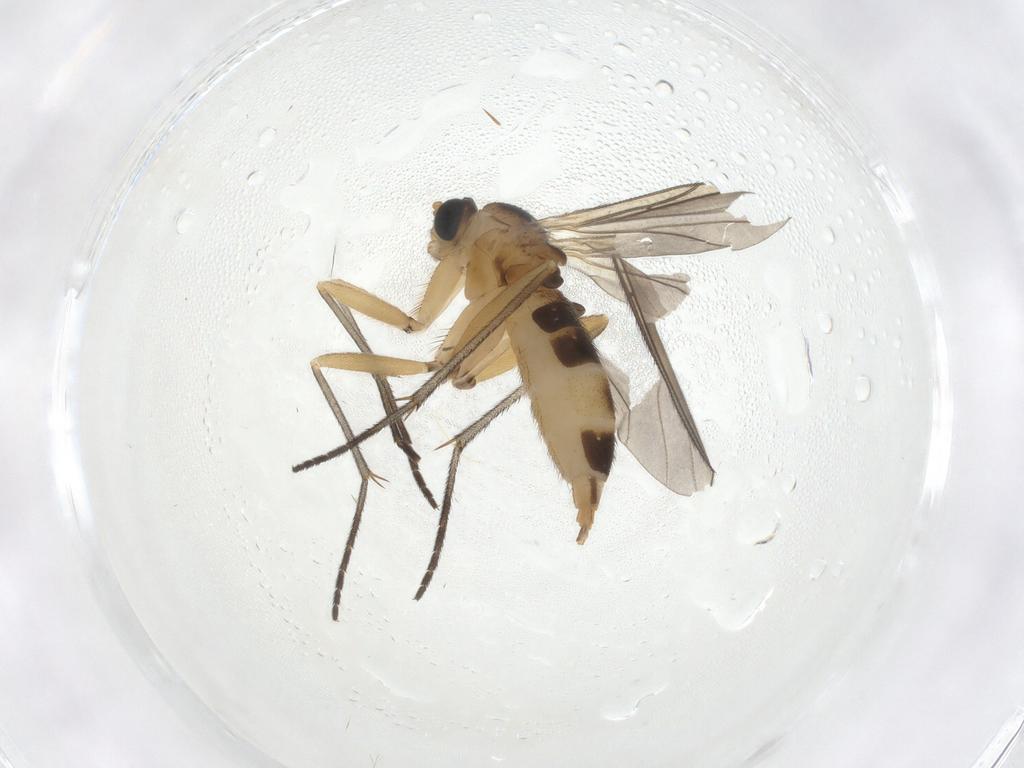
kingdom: Animalia
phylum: Arthropoda
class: Insecta
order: Diptera
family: Sciaridae
